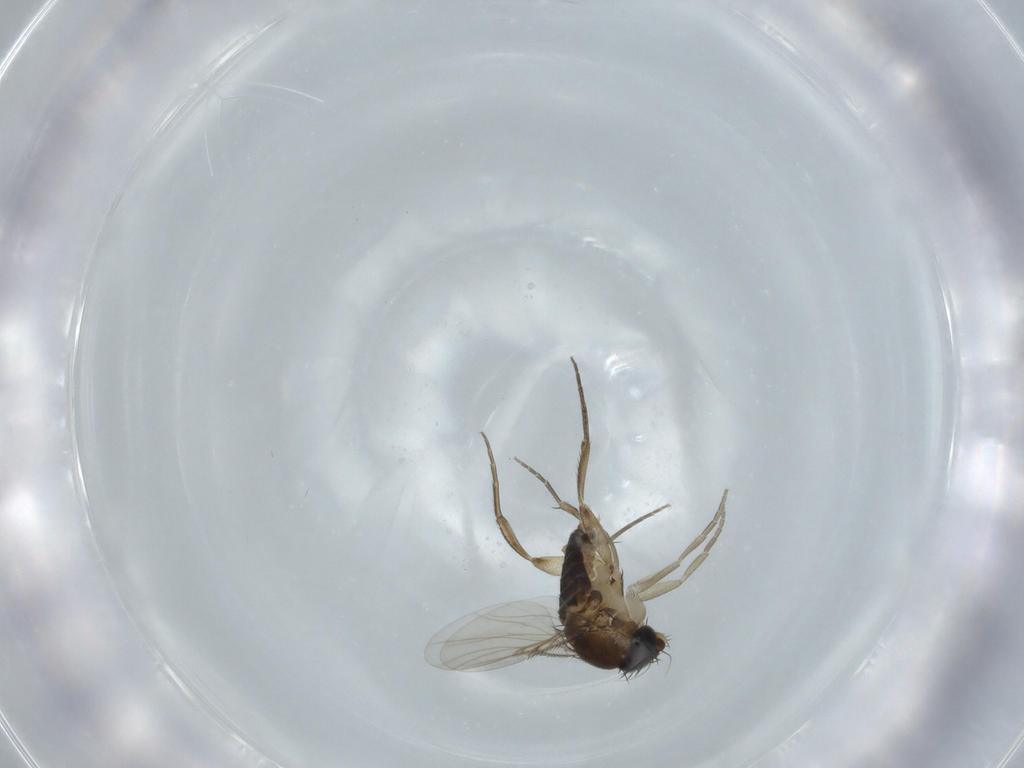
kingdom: Animalia
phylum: Arthropoda
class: Insecta
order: Diptera
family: Phoridae
